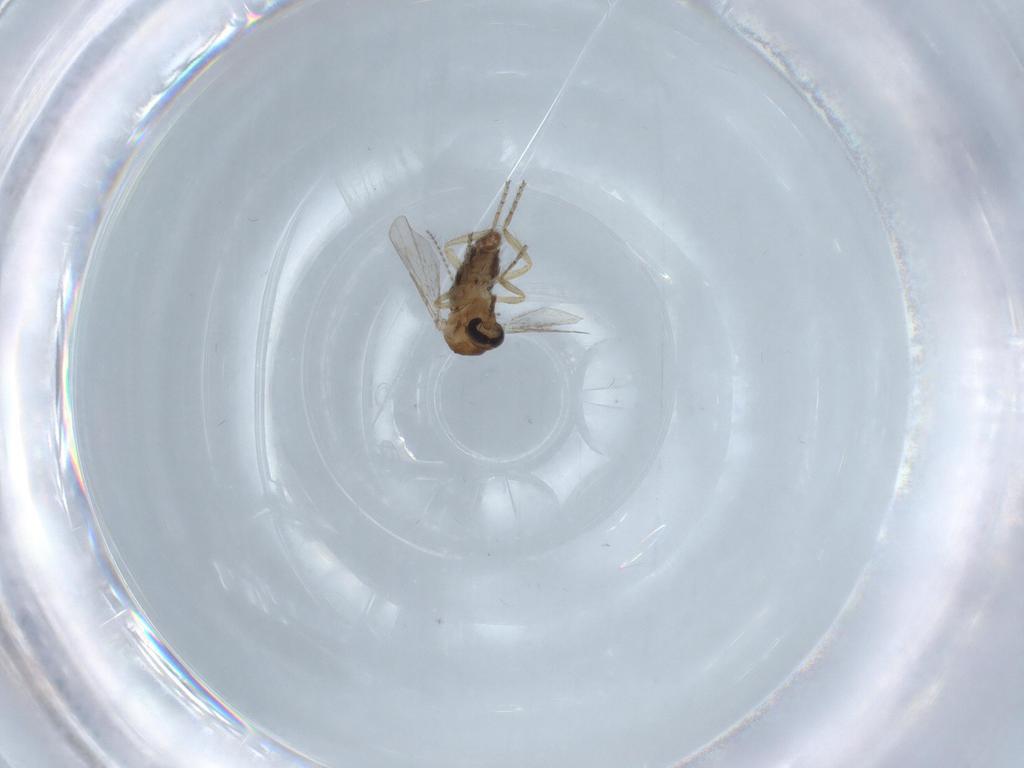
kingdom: Animalia
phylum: Arthropoda
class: Insecta
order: Diptera
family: Ceratopogonidae
